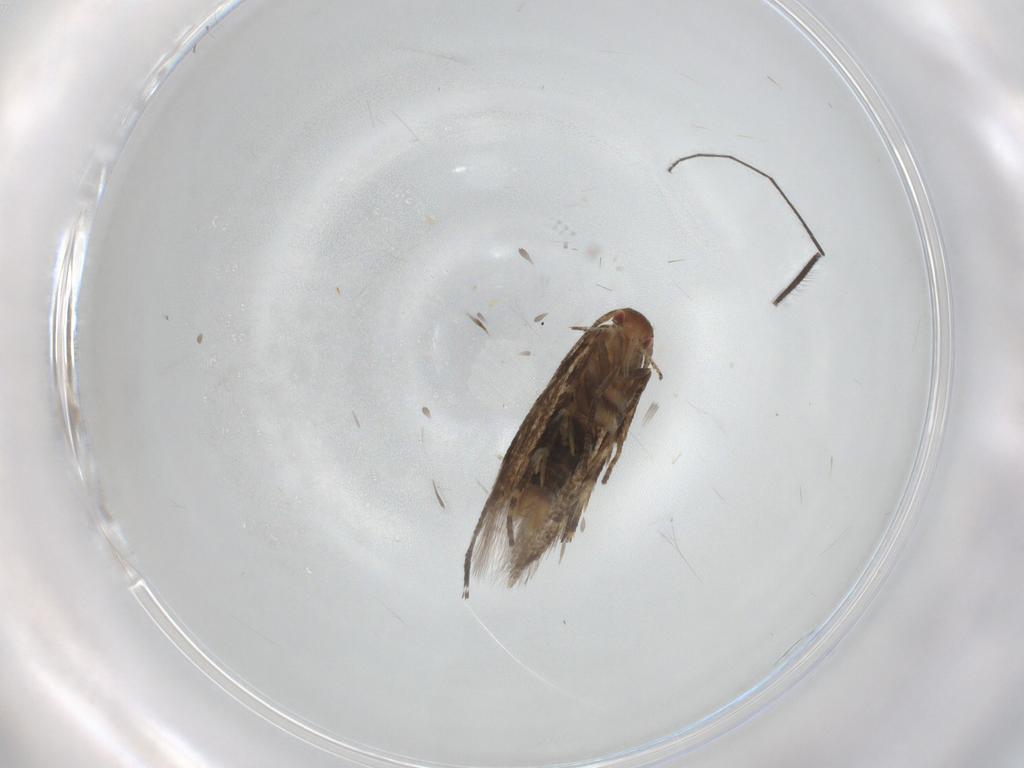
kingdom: Animalia
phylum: Arthropoda
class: Insecta
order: Lepidoptera
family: Momphidae
